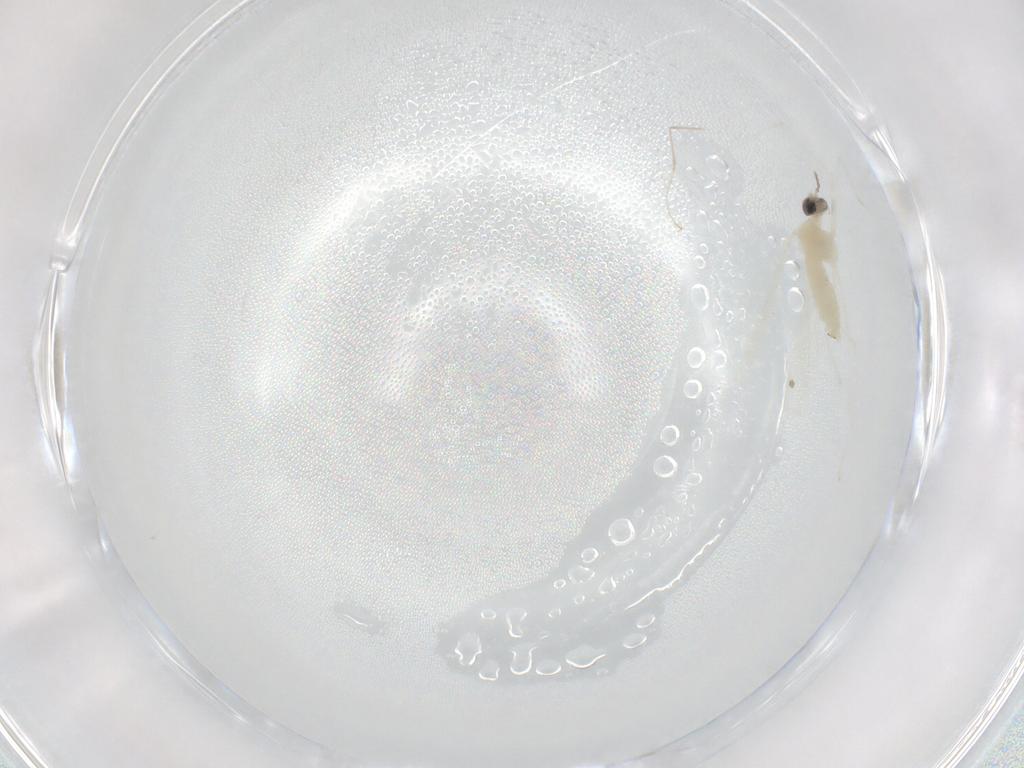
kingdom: Animalia
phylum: Arthropoda
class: Insecta
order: Diptera
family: Cecidomyiidae
